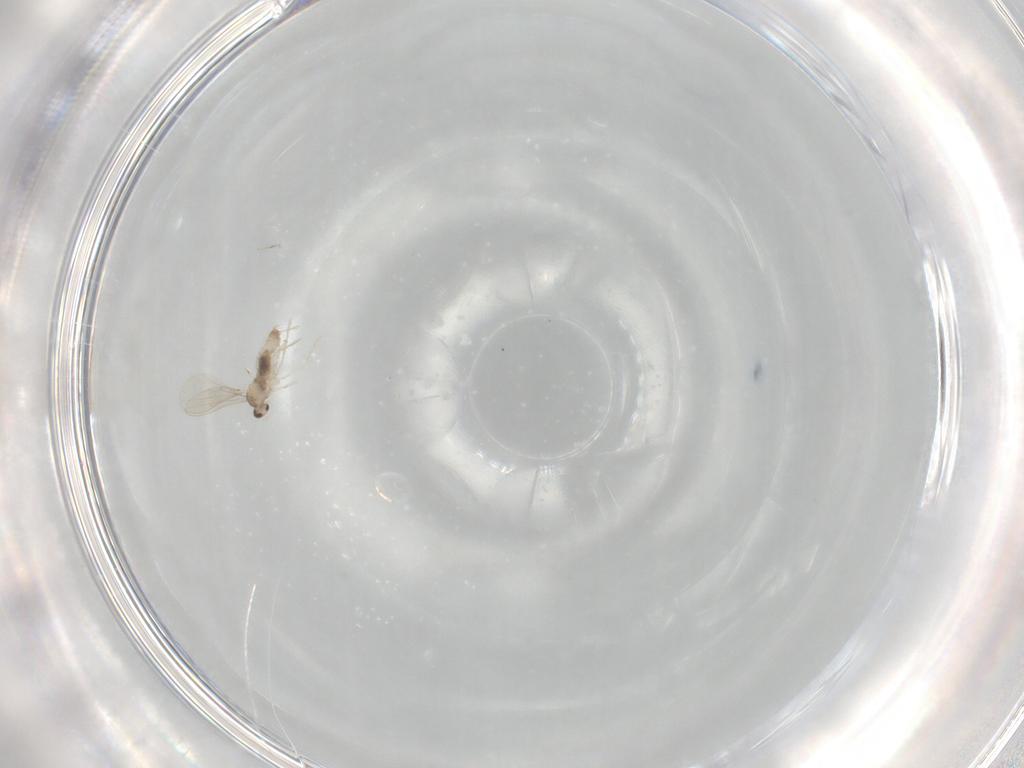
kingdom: Animalia
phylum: Arthropoda
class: Insecta
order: Diptera
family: Cecidomyiidae
